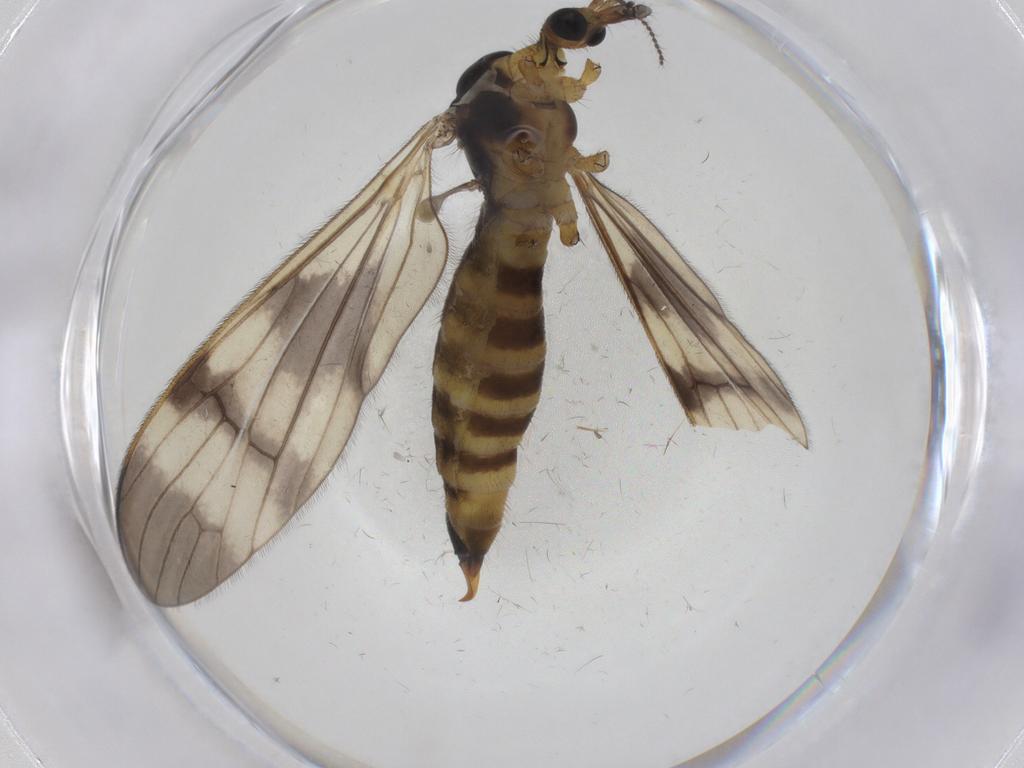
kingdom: Animalia
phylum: Arthropoda
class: Insecta
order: Diptera
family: Limoniidae
